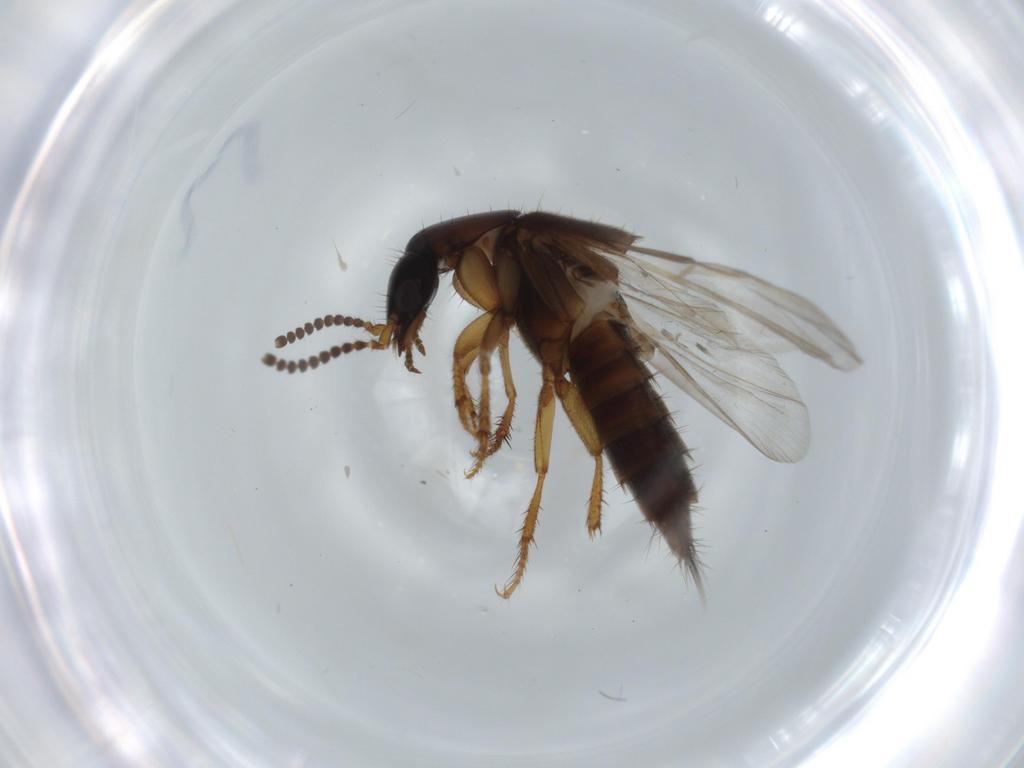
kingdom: Animalia
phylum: Arthropoda
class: Insecta
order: Coleoptera
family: Staphylinidae
